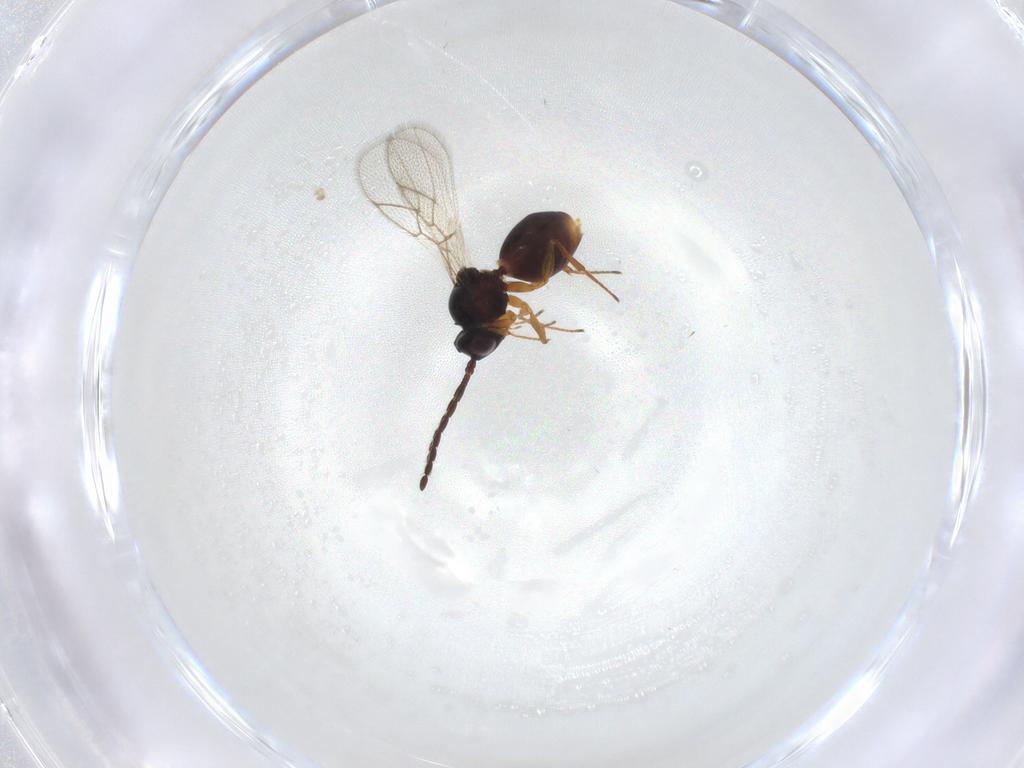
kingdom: Animalia
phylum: Arthropoda
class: Insecta
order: Hymenoptera
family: Figitidae
